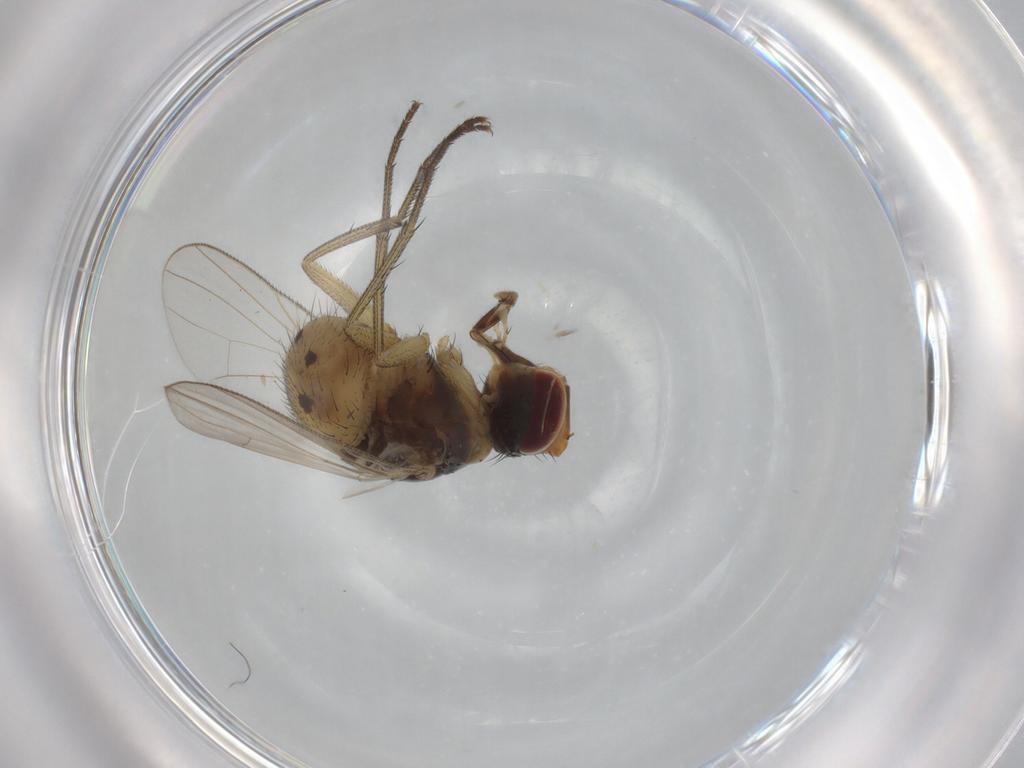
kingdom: Animalia
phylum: Arthropoda
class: Insecta
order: Diptera
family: Muscidae
